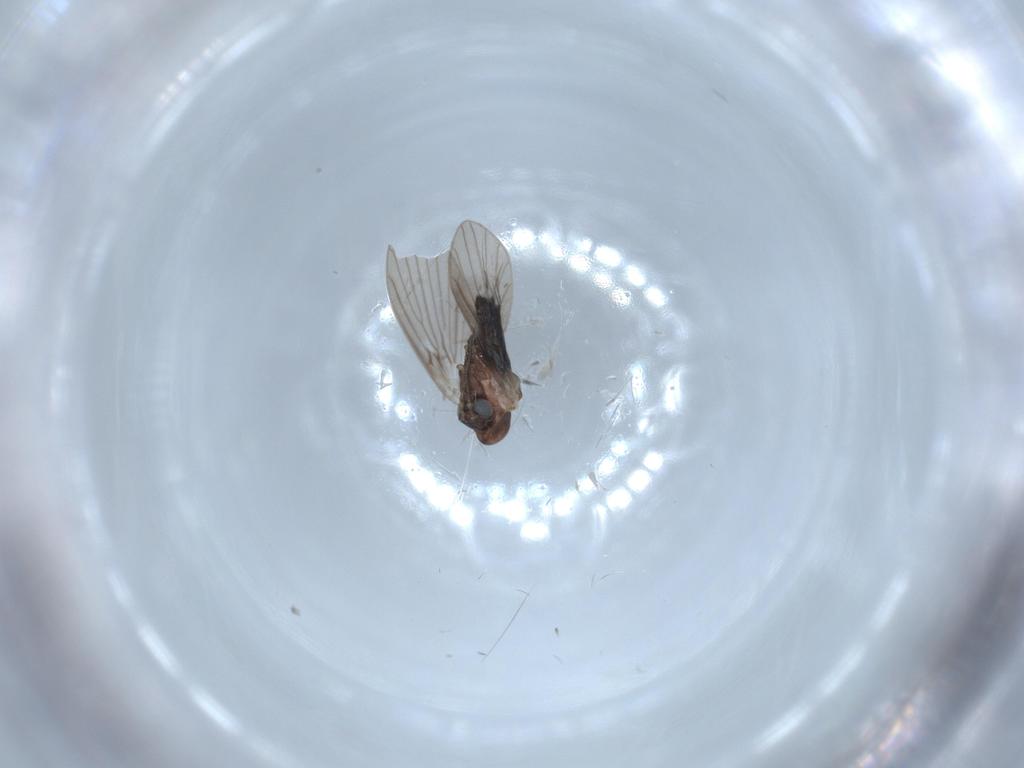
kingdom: Animalia
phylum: Arthropoda
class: Insecta
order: Diptera
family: Psychodidae
